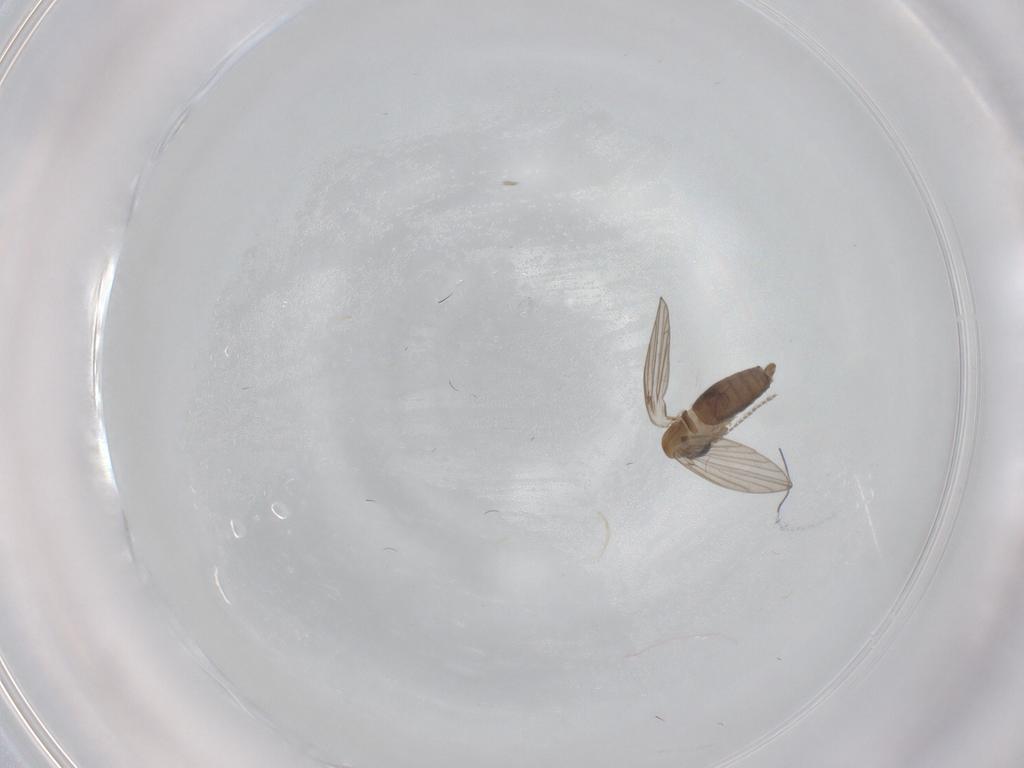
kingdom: Animalia
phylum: Arthropoda
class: Insecta
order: Diptera
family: Psychodidae
